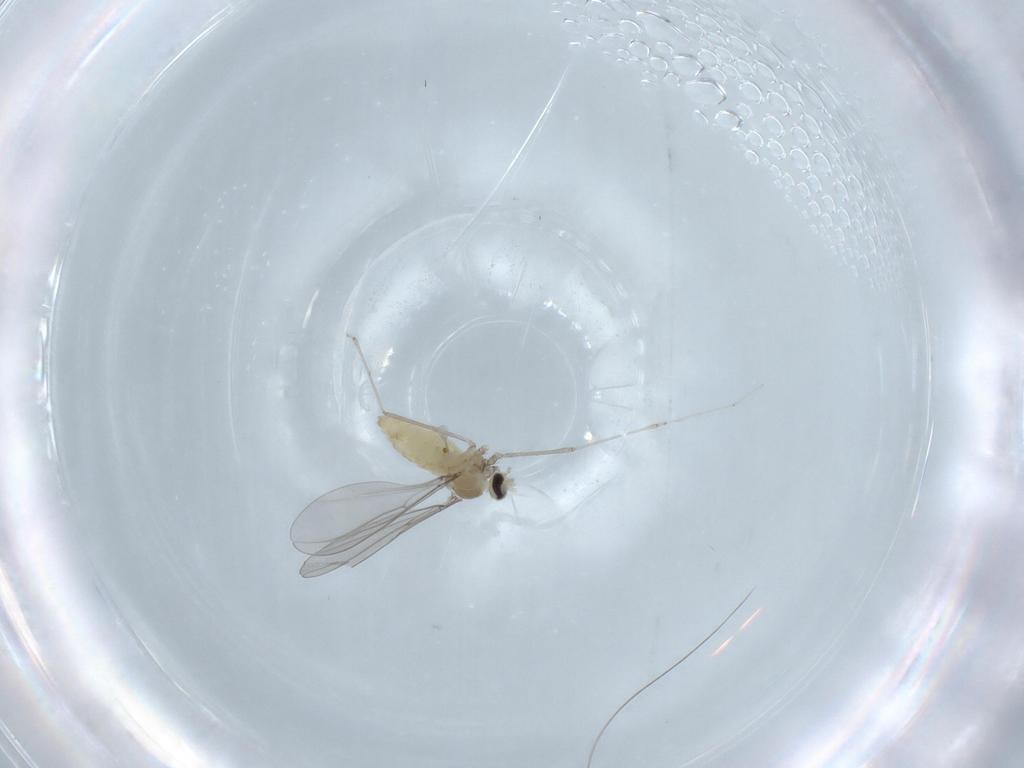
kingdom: Animalia
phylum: Arthropoda
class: Insecta
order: Diptera
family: Cecidomyiidae
